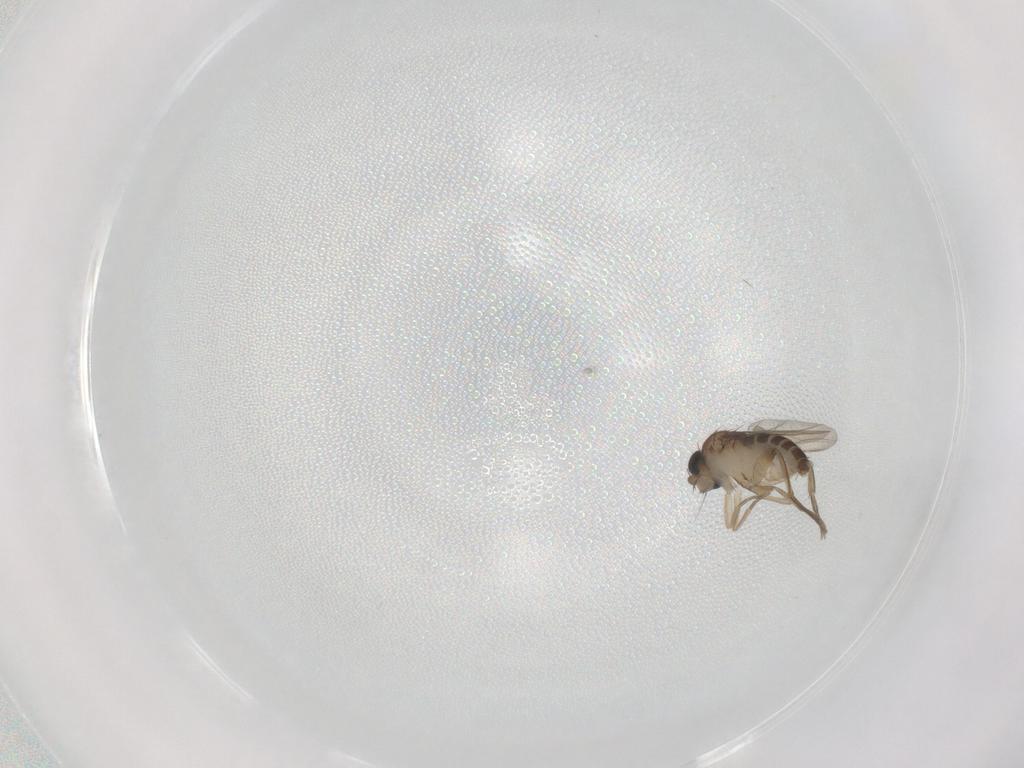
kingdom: Animalia
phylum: Arthropoda
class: Insecta
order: Diptera
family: Phoridae
